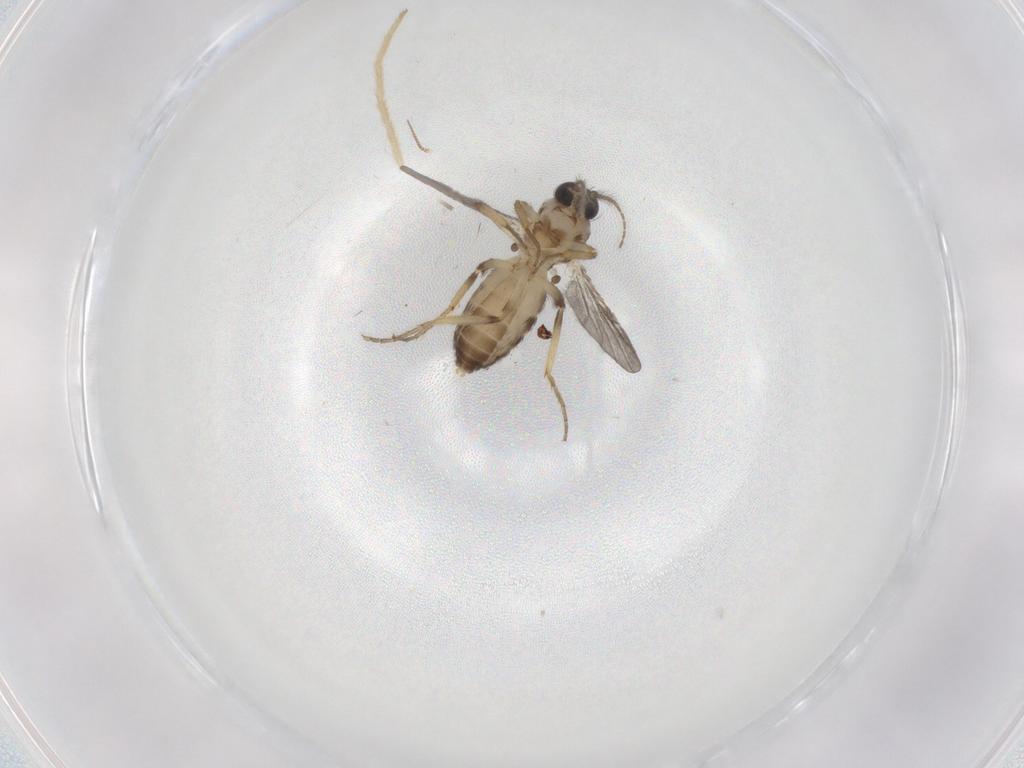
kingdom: Animalia
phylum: Arthropoda
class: Insecta
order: Diptera
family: Ceratopogonidae
